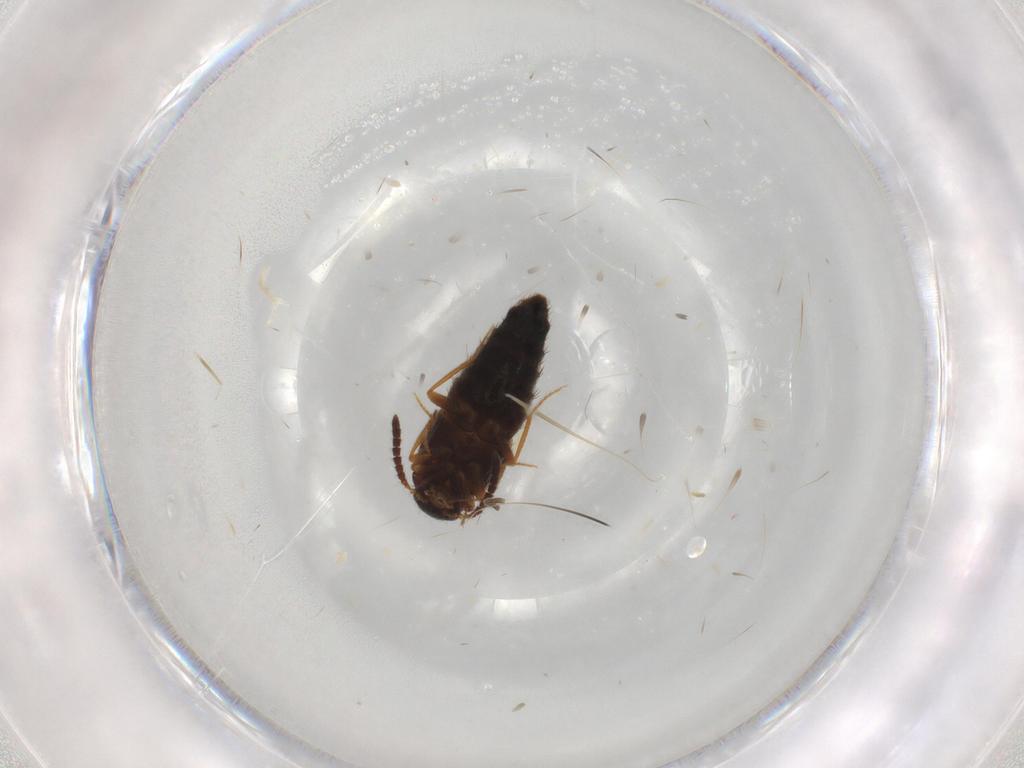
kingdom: Animalia
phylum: Arthropoda
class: Insecta
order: Coleoptera
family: Staphylinidae
